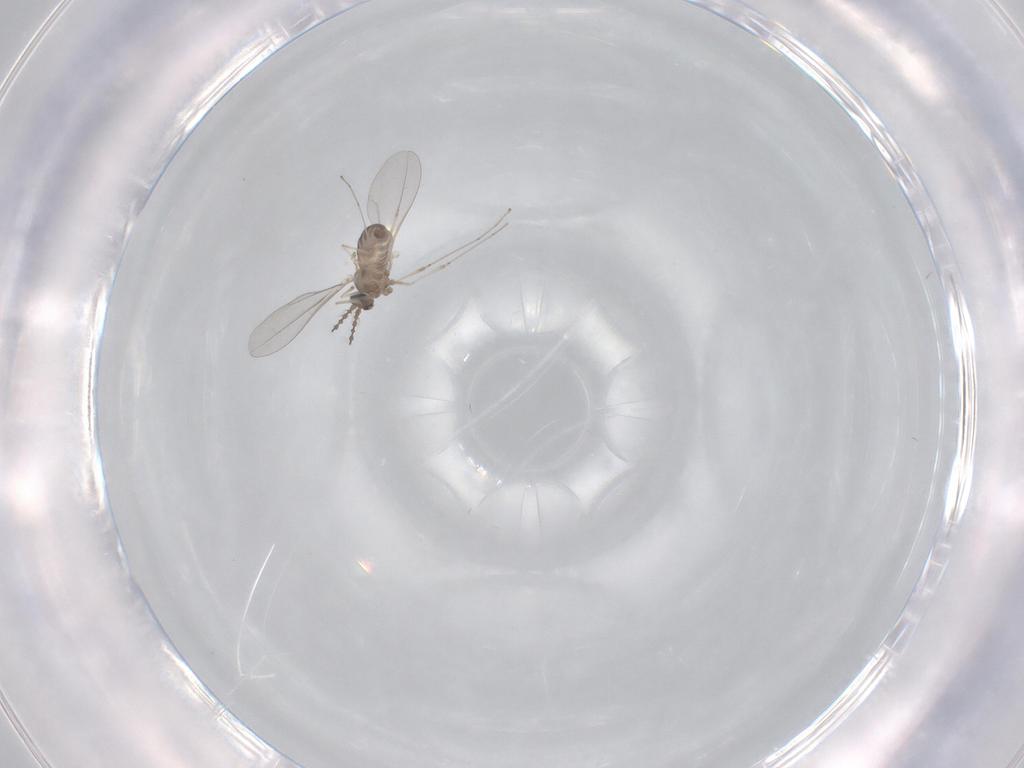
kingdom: Animalia
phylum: Arthropoda
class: Insecta
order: Diptera
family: Cecidomyiidae
